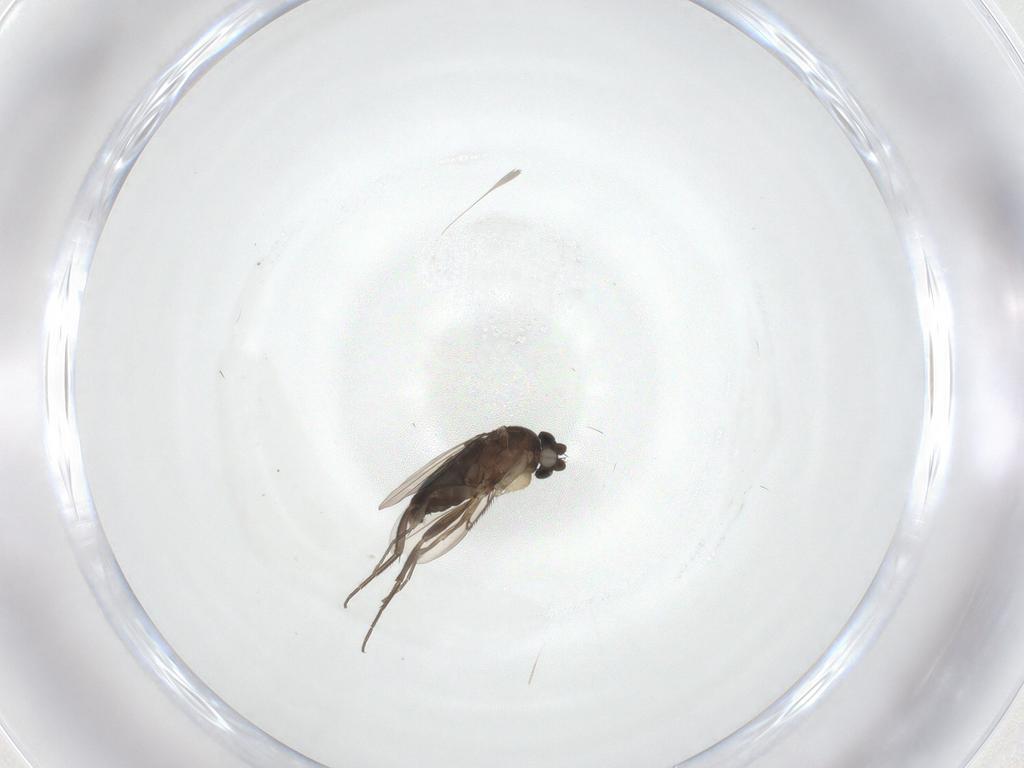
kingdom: Animalia
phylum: Arthropoda
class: Insecta
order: Diptera
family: Phoridae
